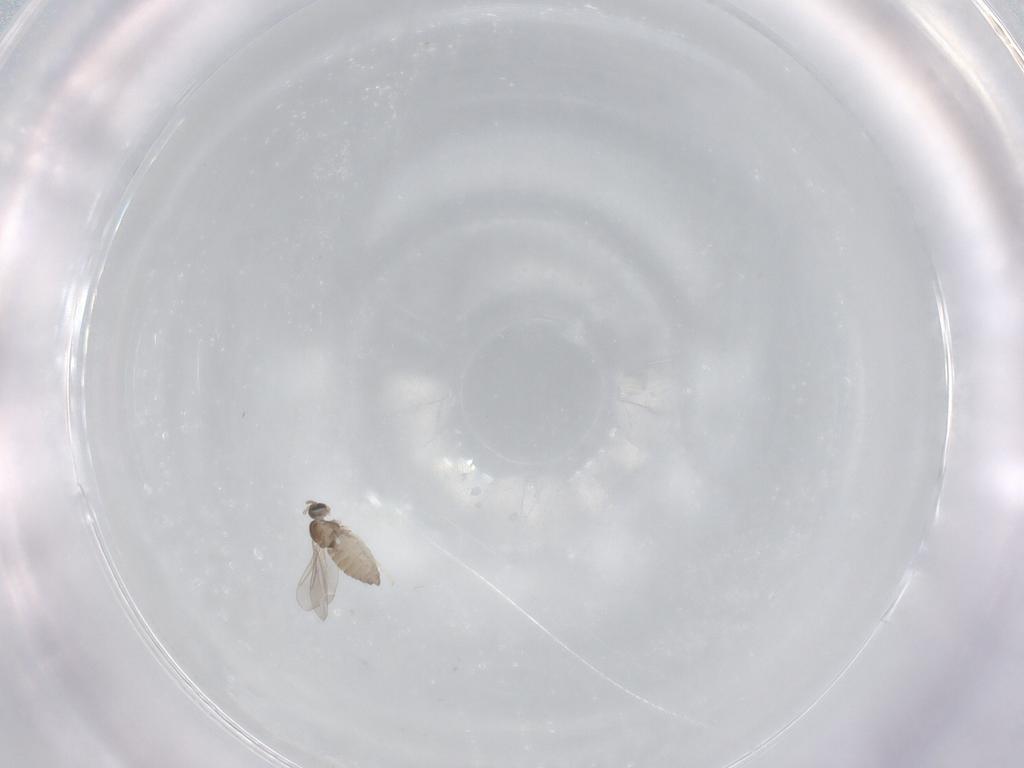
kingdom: Animalia
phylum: Arthropoda
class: Insecta
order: Diptera
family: Cecidomyiidae
